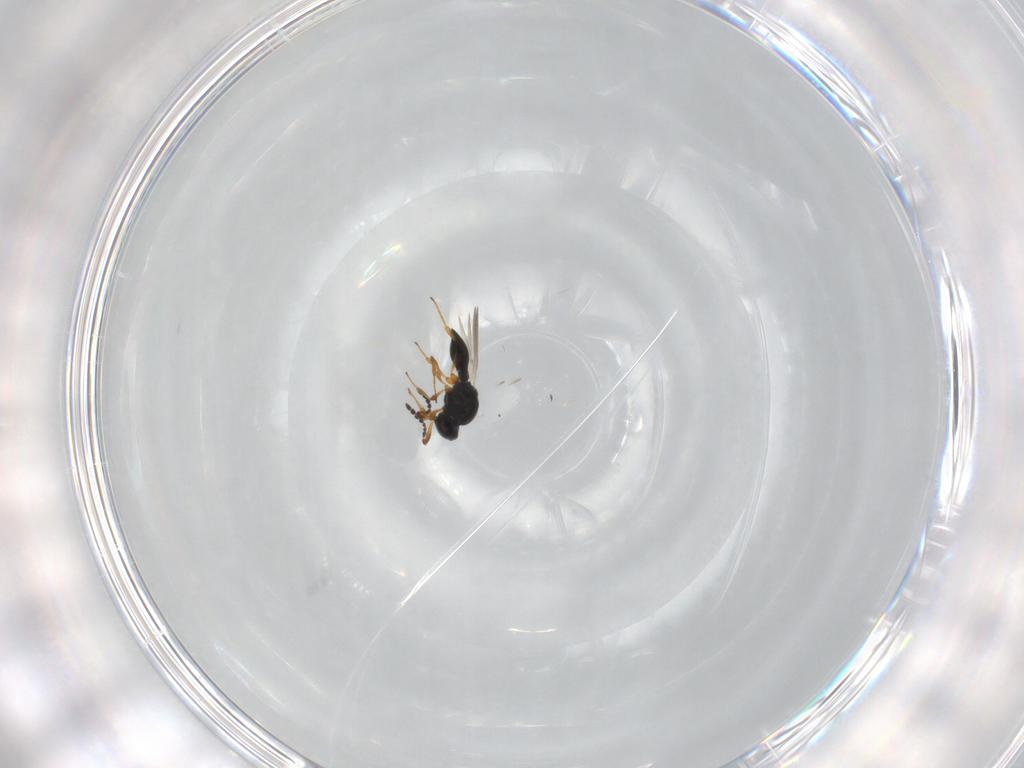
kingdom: Animalia
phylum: Arthropoda
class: Insecta
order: Hymenoptera
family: Platygastridae
